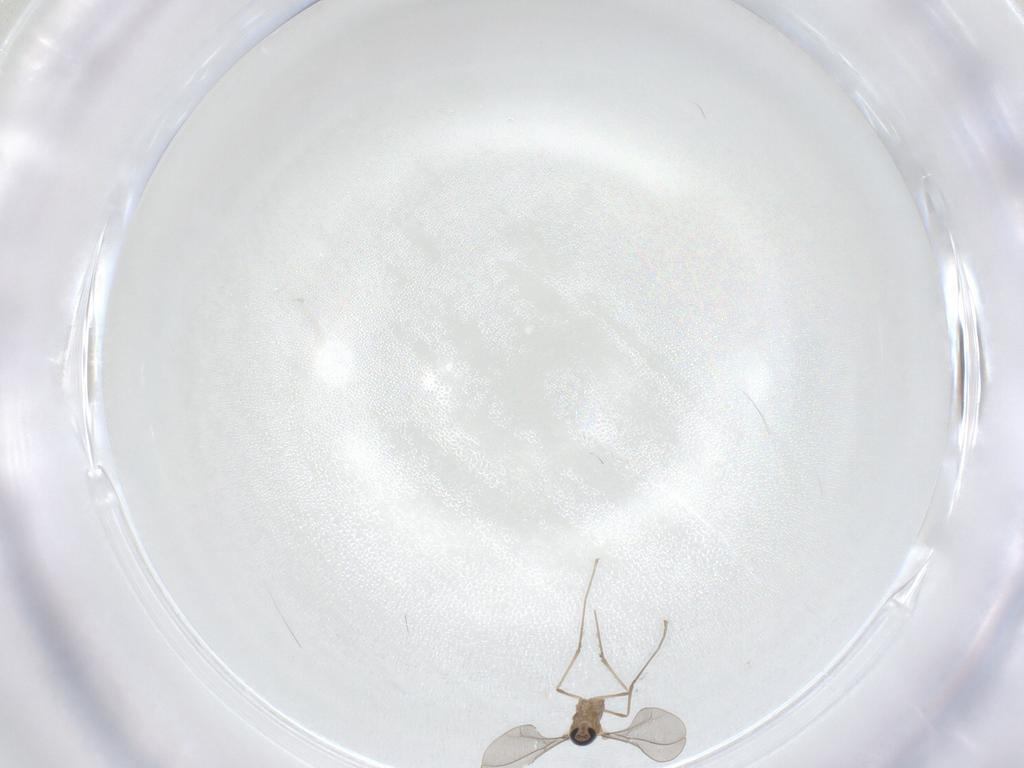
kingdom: Animalia
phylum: Arthropoda
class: Insecta
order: Diptera
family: Cecidomyiidae
